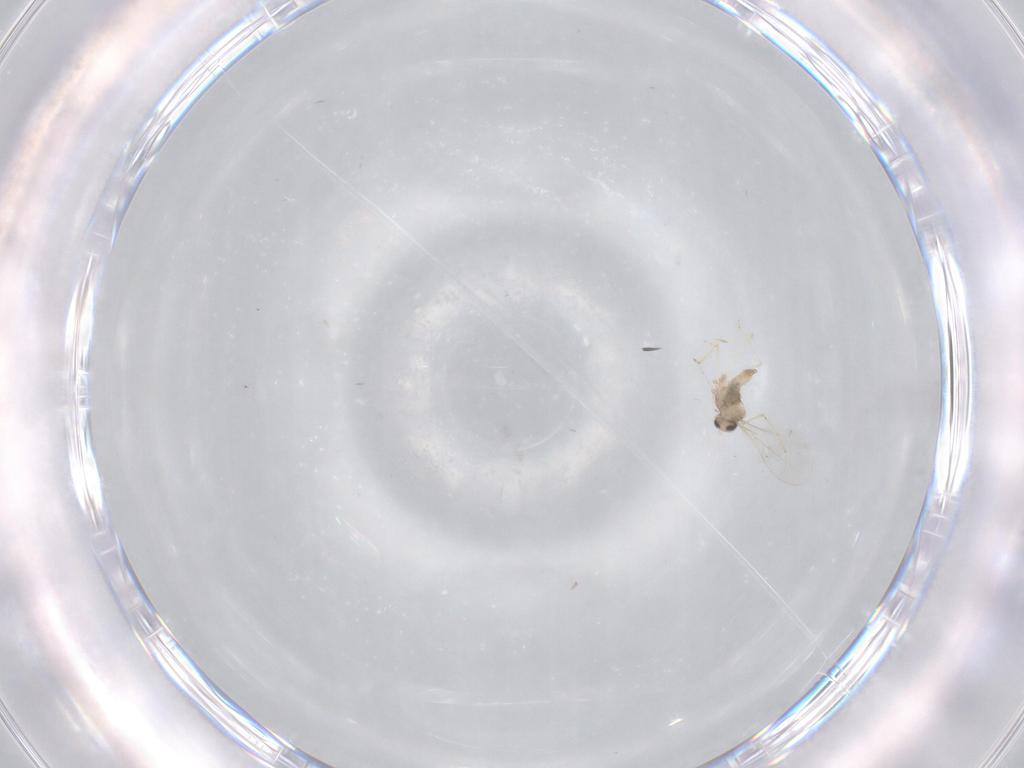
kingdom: Animalia
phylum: Arthropoda
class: Insecta
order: Diptera
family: Cecidomyiidae
